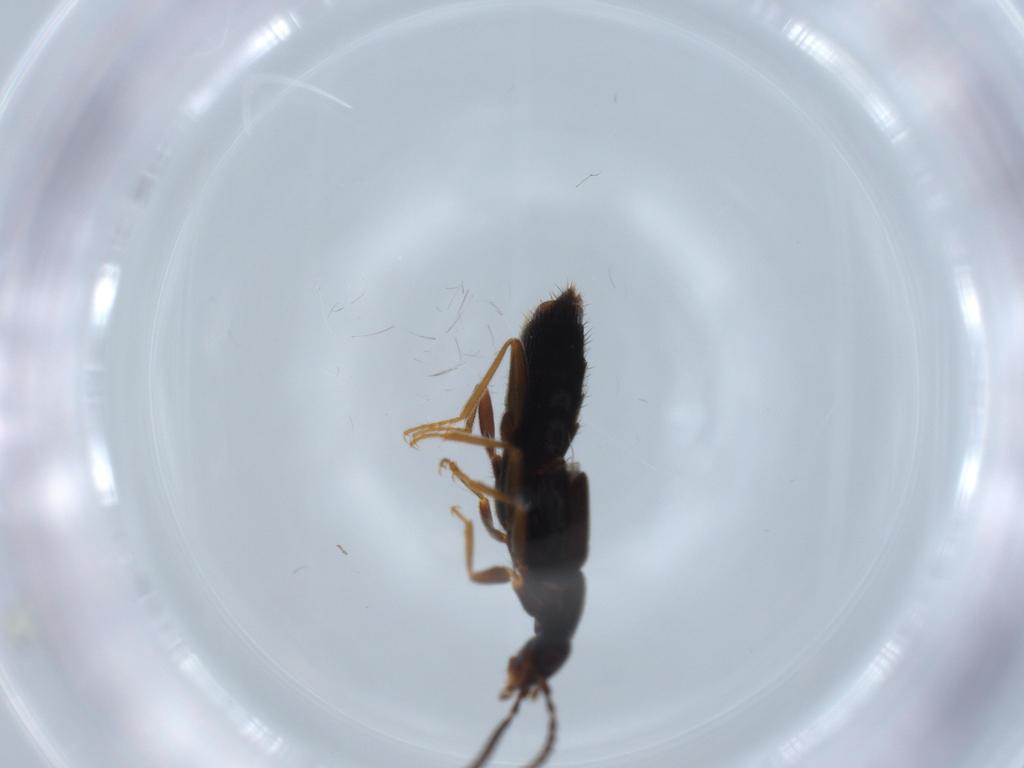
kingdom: Animalia
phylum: Arthropoda
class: Insecta
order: Coleoptera
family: Staphylinidae
